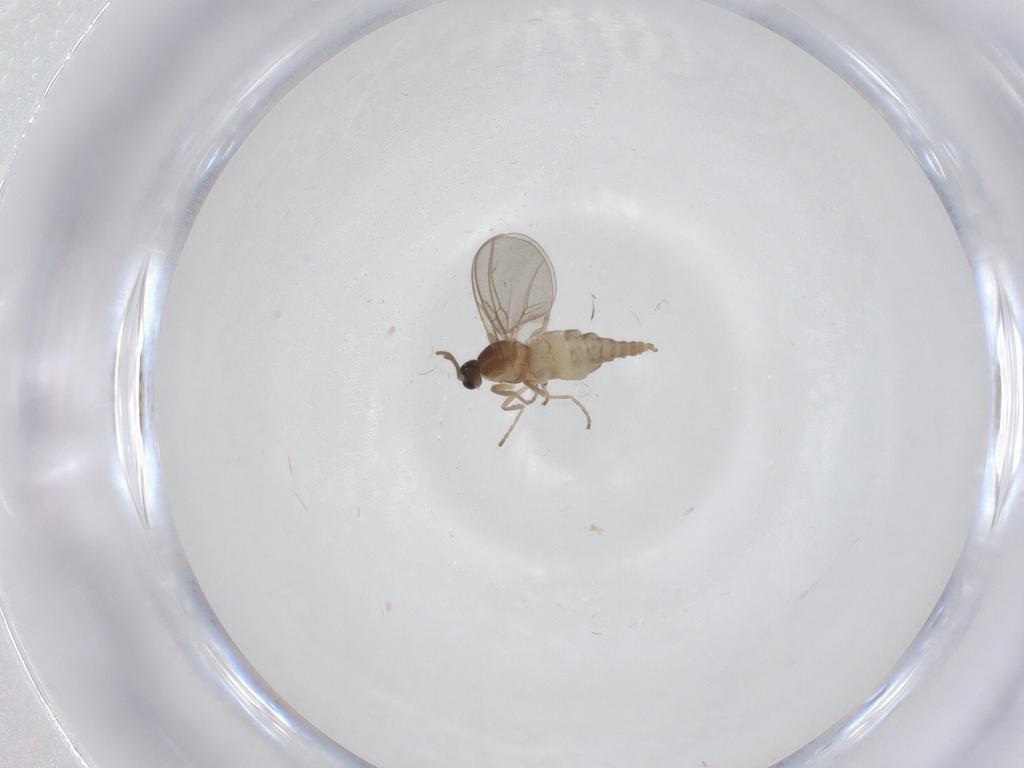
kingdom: Animalia
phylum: Arthropoda
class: Insecta
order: Diptera
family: Cecidomyiidae
